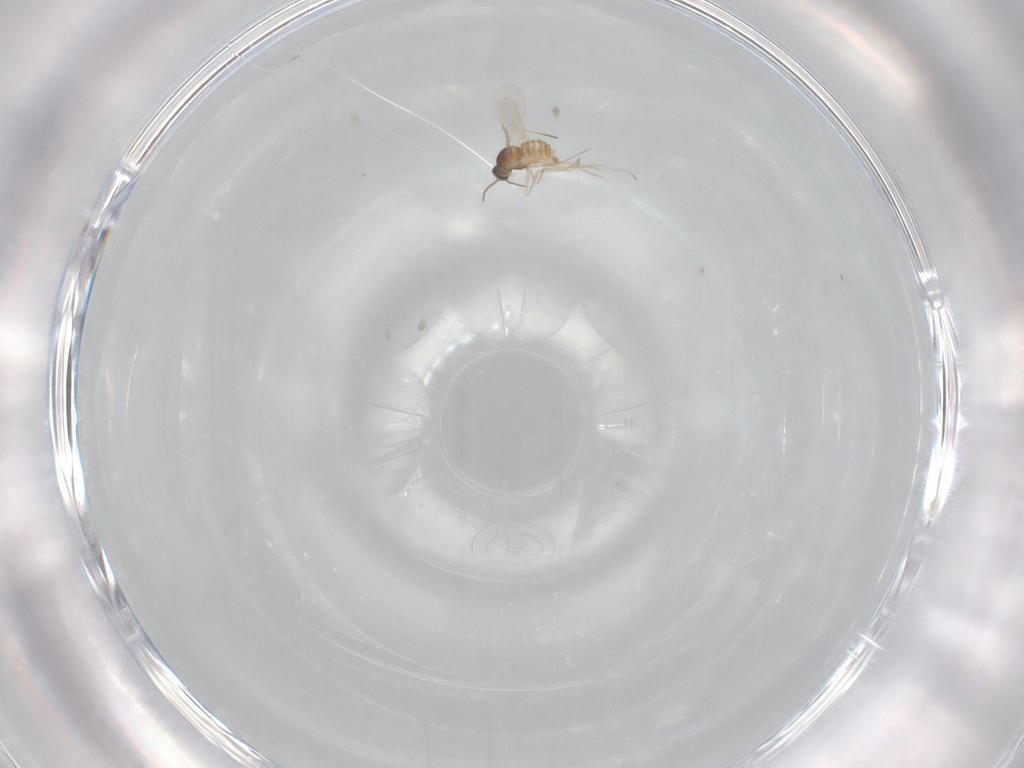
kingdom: Animalia
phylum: Arthropoda
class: Insecta
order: Diptera
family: Cecidomyiidae
